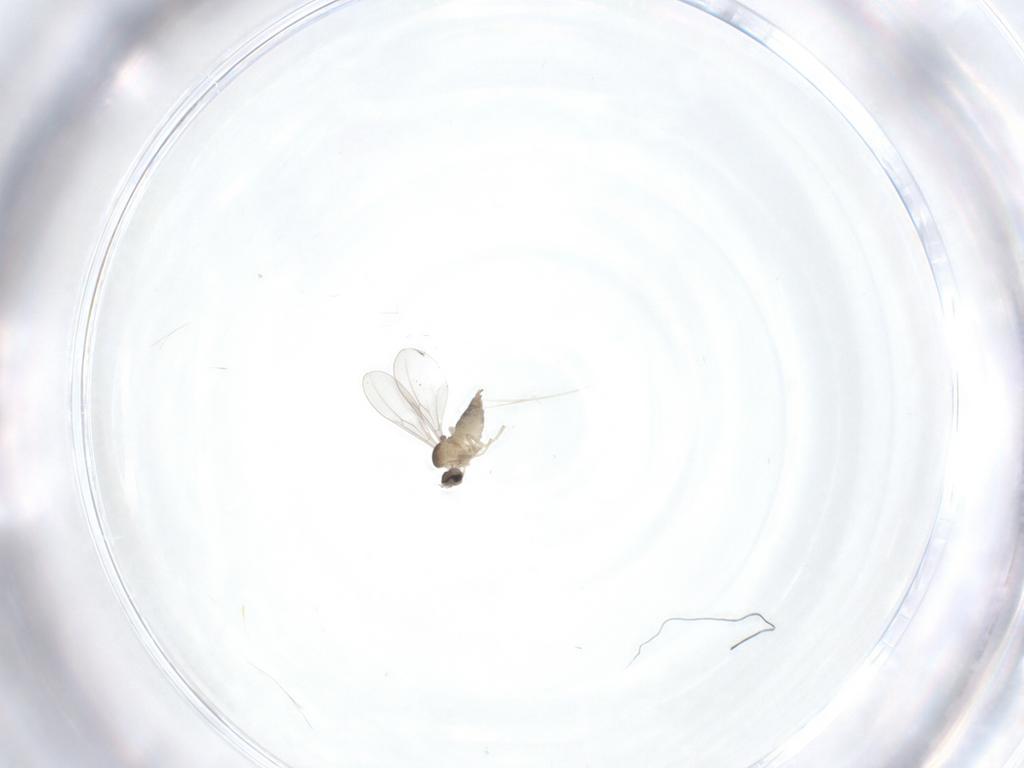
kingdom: Animalia
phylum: Arthropoda
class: Insecta
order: Diptera
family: Cecidomyiidae
